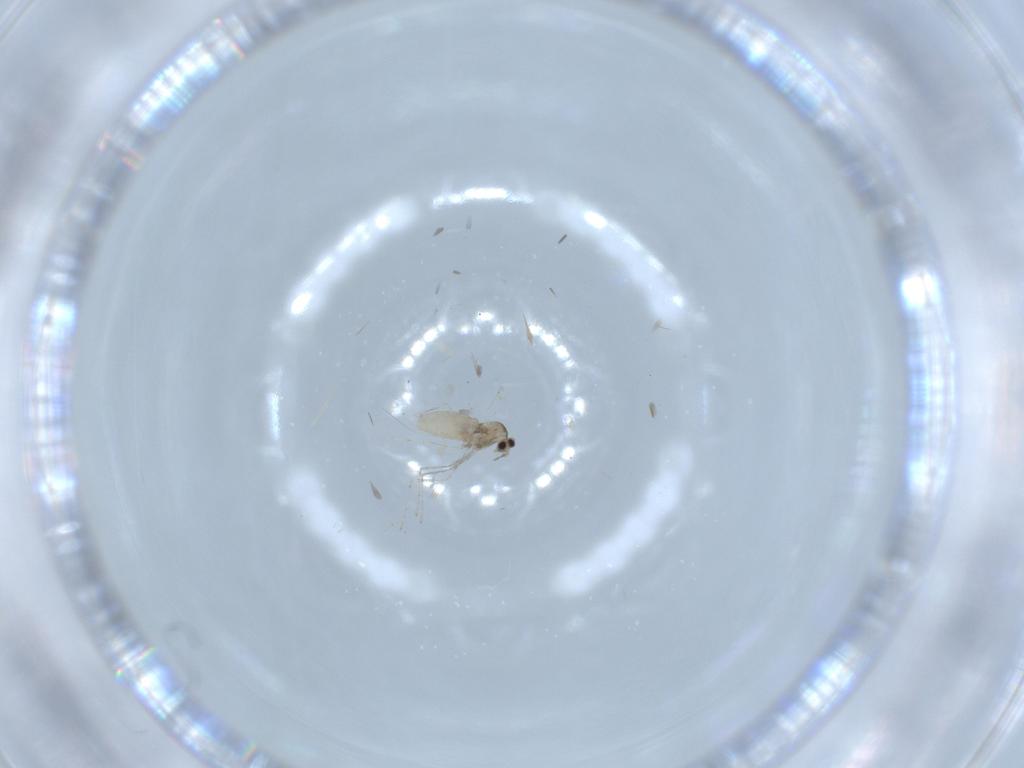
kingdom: Animalia
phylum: Arthropoda
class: Insecta
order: Diptera
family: Cecidomyiidae
